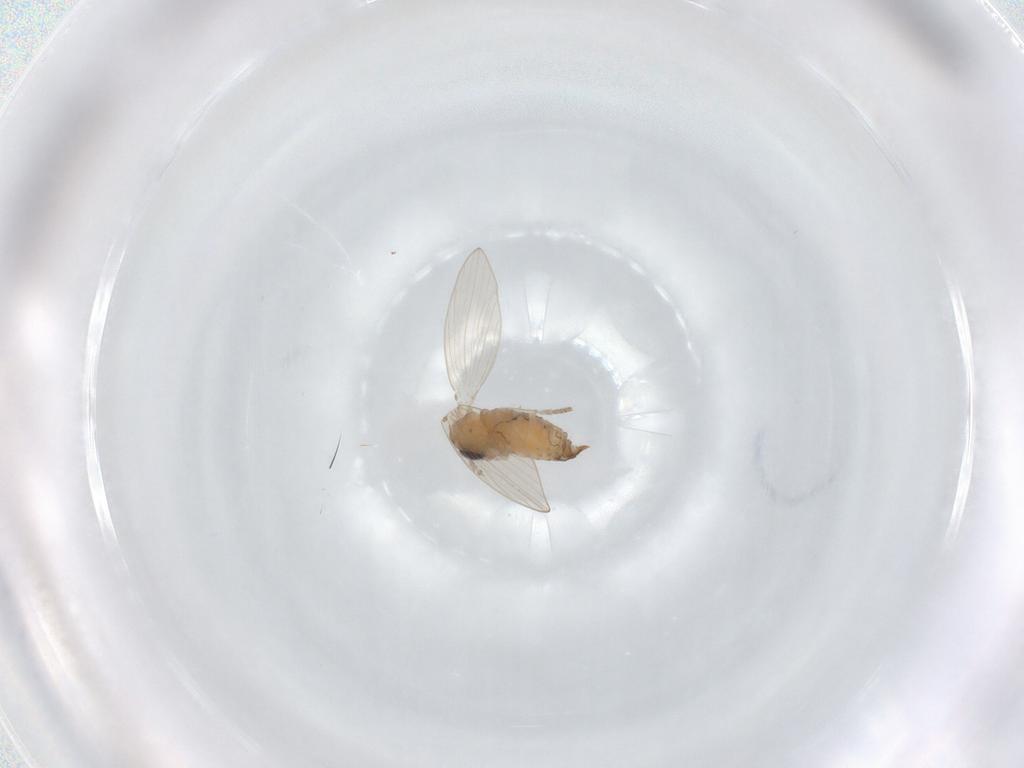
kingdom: Animalia
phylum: Arthropoda
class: Insecta
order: Diptera
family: Psychodidae
